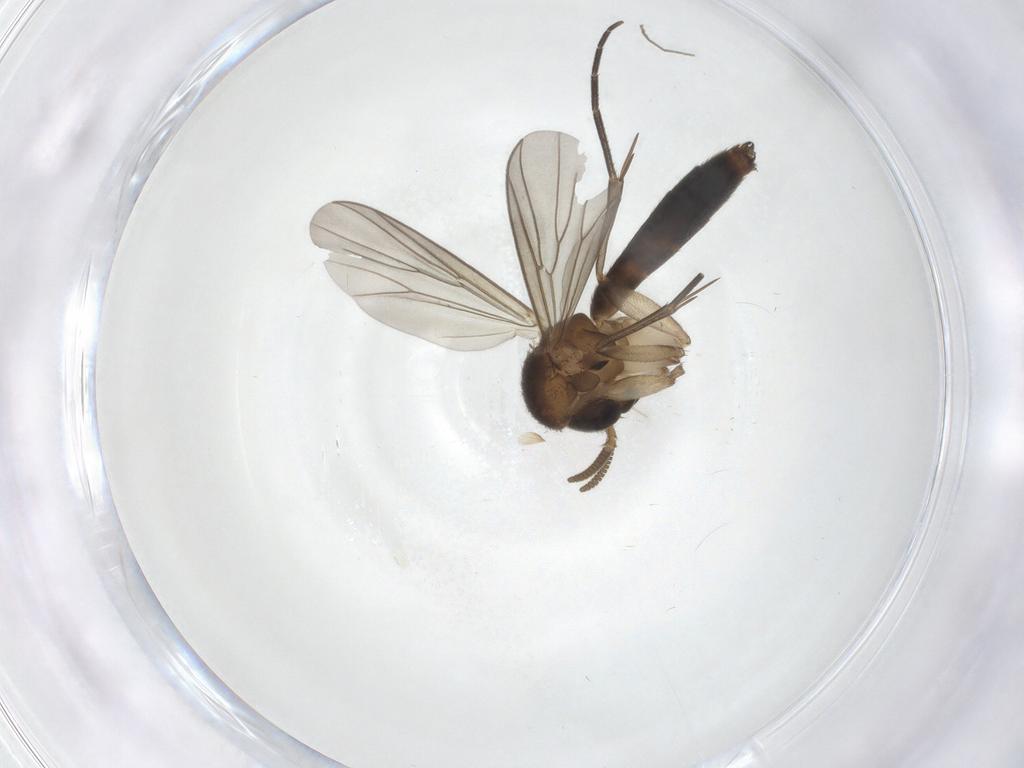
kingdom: Animalia
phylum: Arthropoda
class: Insecta
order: Diptera
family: Mycetophilidae
